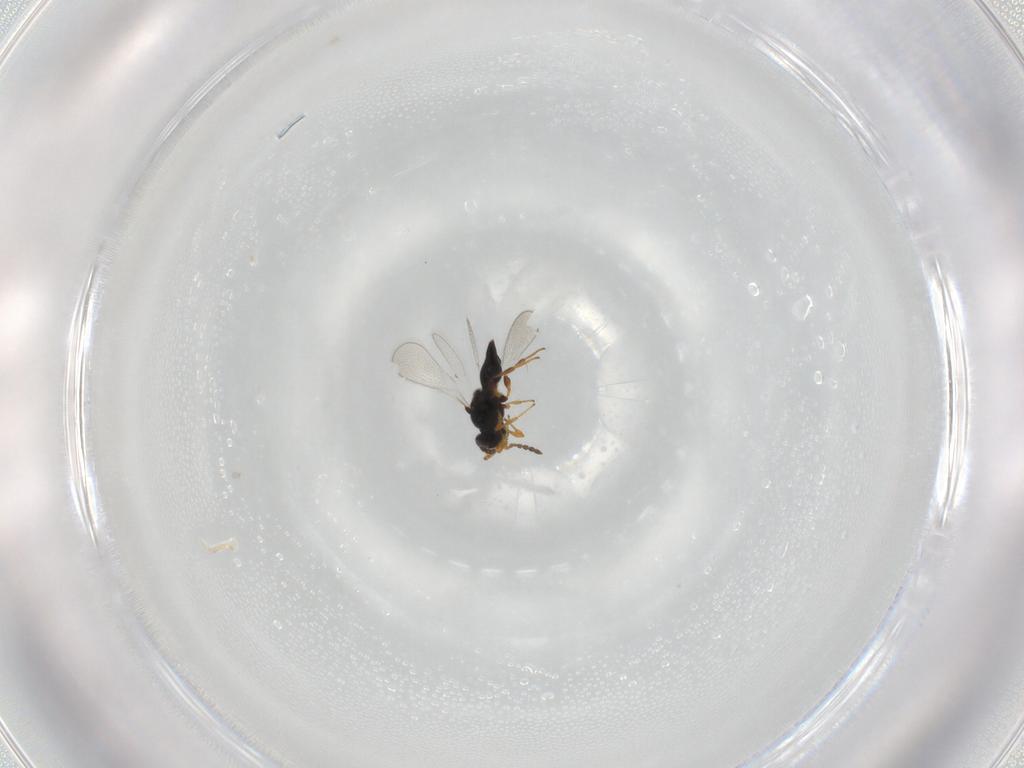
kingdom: Animalia
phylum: Arthropoda
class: Insecta
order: Hymenoptera
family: Platygastridae
